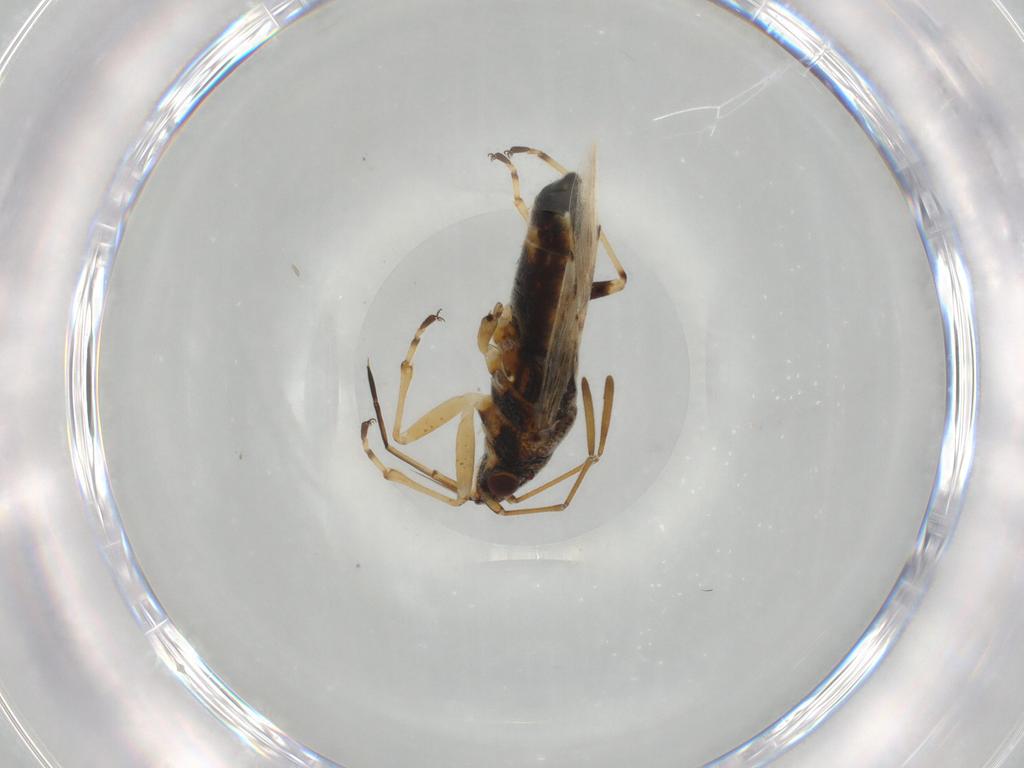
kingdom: Animalia
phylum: Arthropoda
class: Insecta
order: Hemiptera
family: Lygaeidae
